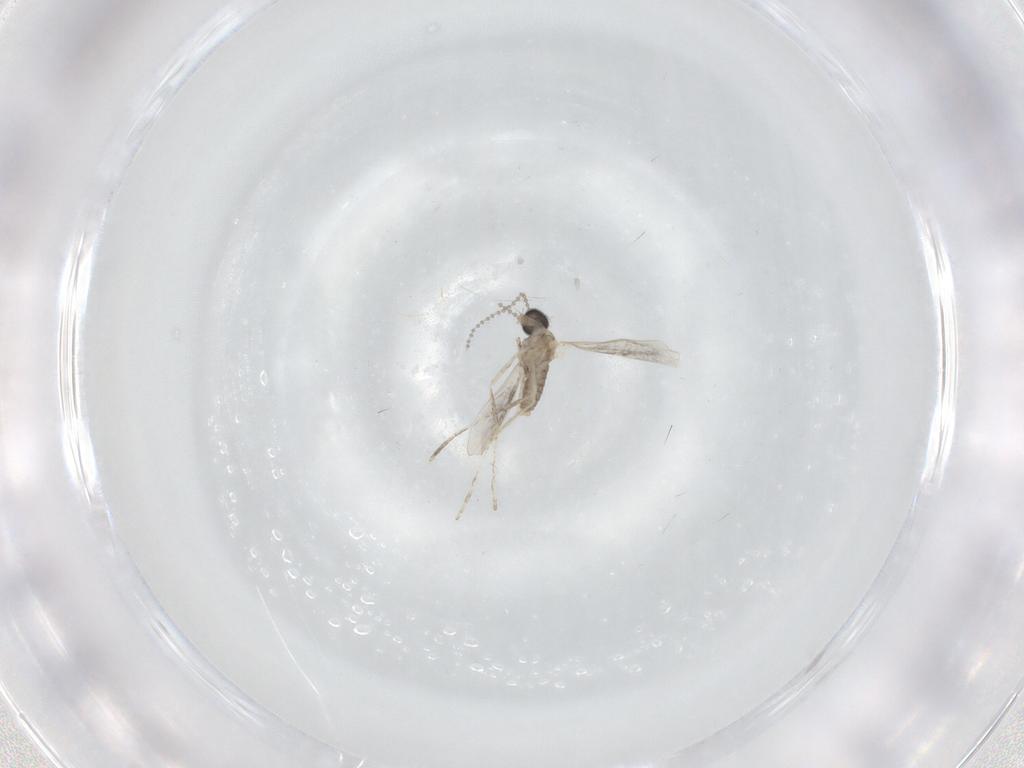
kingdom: Animalia
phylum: Arthropoda
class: Insecta
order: Diptera
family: Cecidomyiidae
